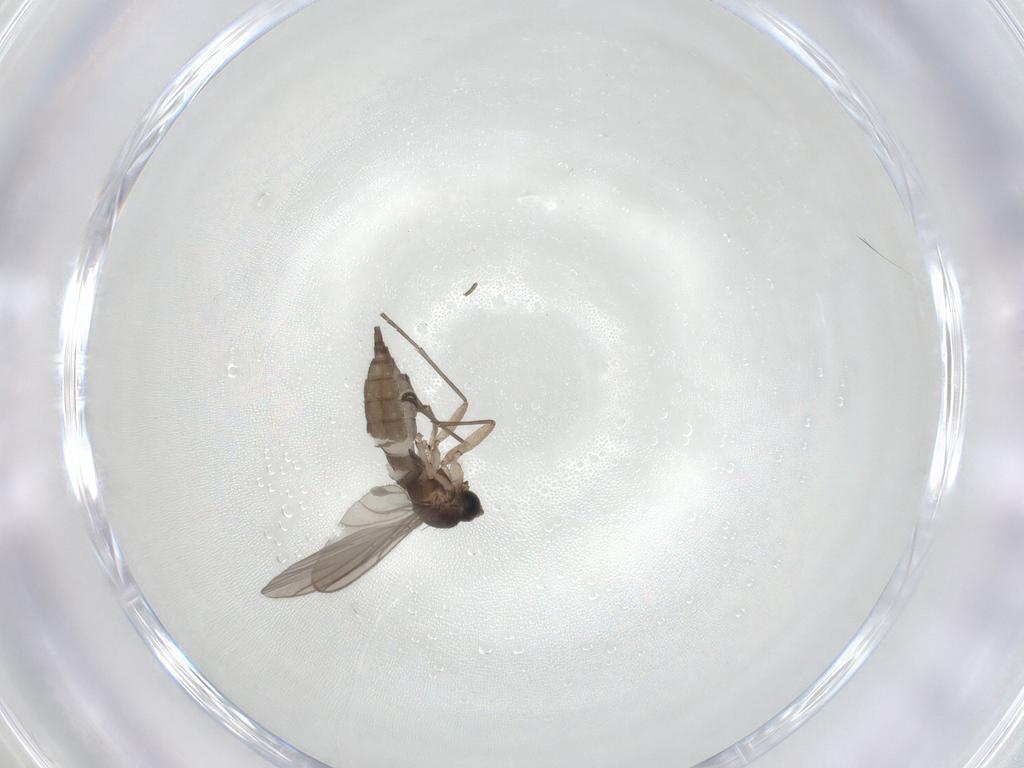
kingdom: Animalia
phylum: Arthropoda
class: Insecta
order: Diptera
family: Sciaridae
